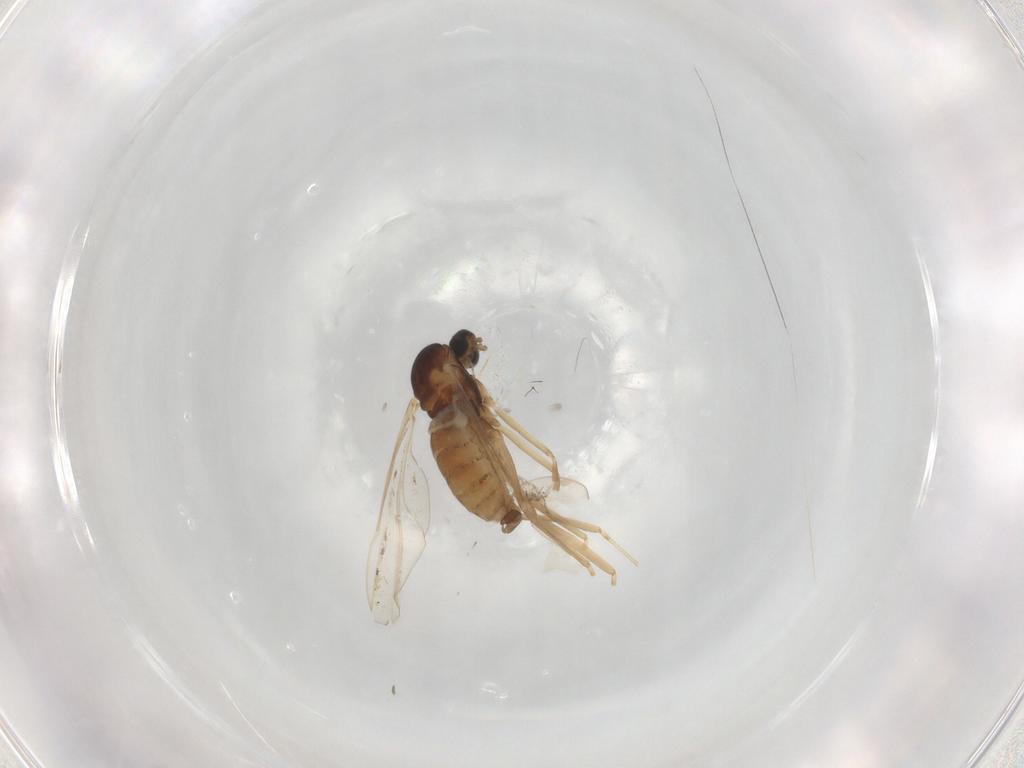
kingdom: Animalia
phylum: Arthropoda
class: Insecta
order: Diptera
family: Cecidomyiidae
